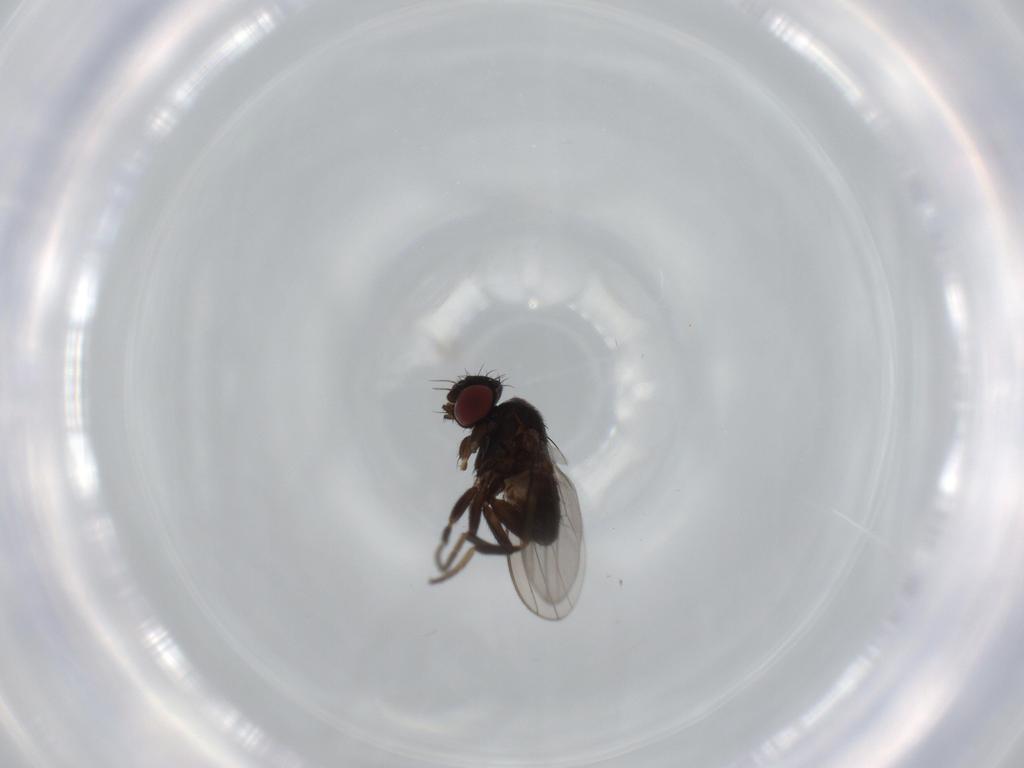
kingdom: Animalia
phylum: Arthropoda
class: Insecta
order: Diptera
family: Milichiidae
